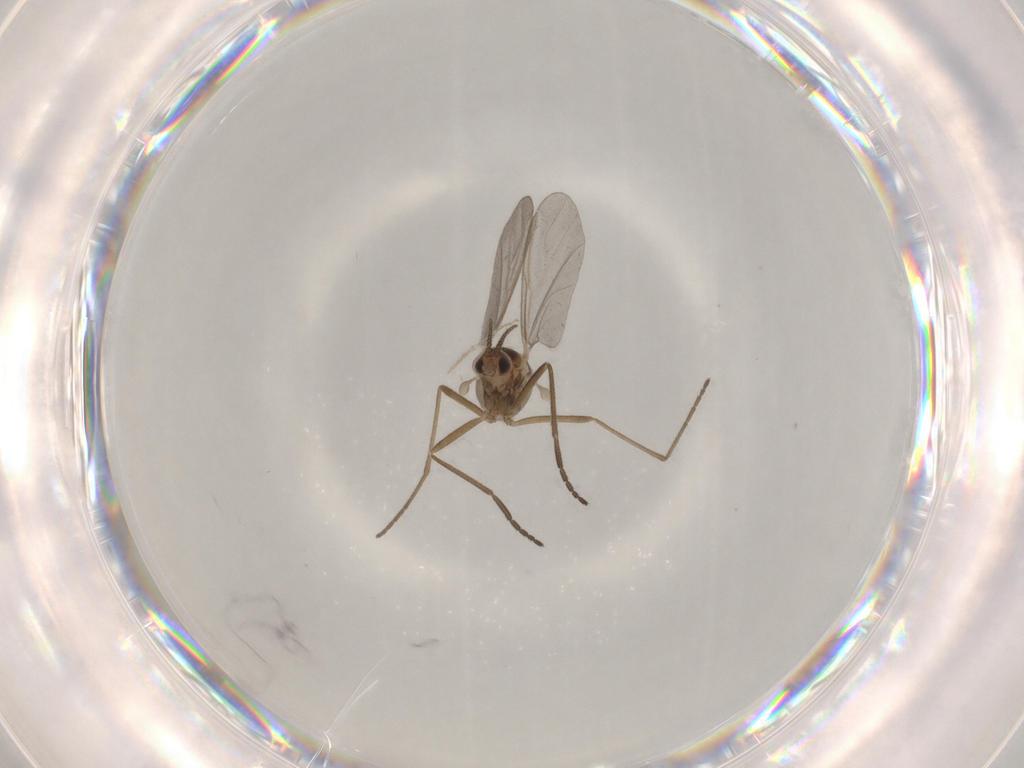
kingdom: Animalia
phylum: Arthropoda
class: Insecta
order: Diptera
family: Cecidomyiidae
